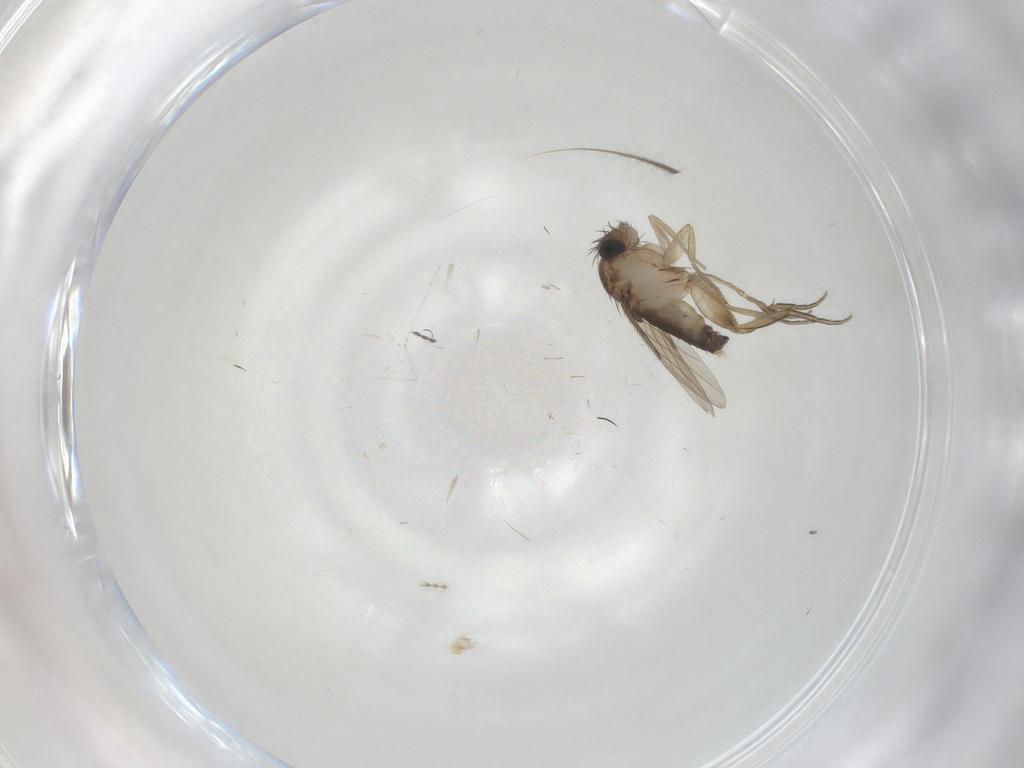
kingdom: Animalia
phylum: Arthropoda
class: Insecta
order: Diptera
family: Phoridae
